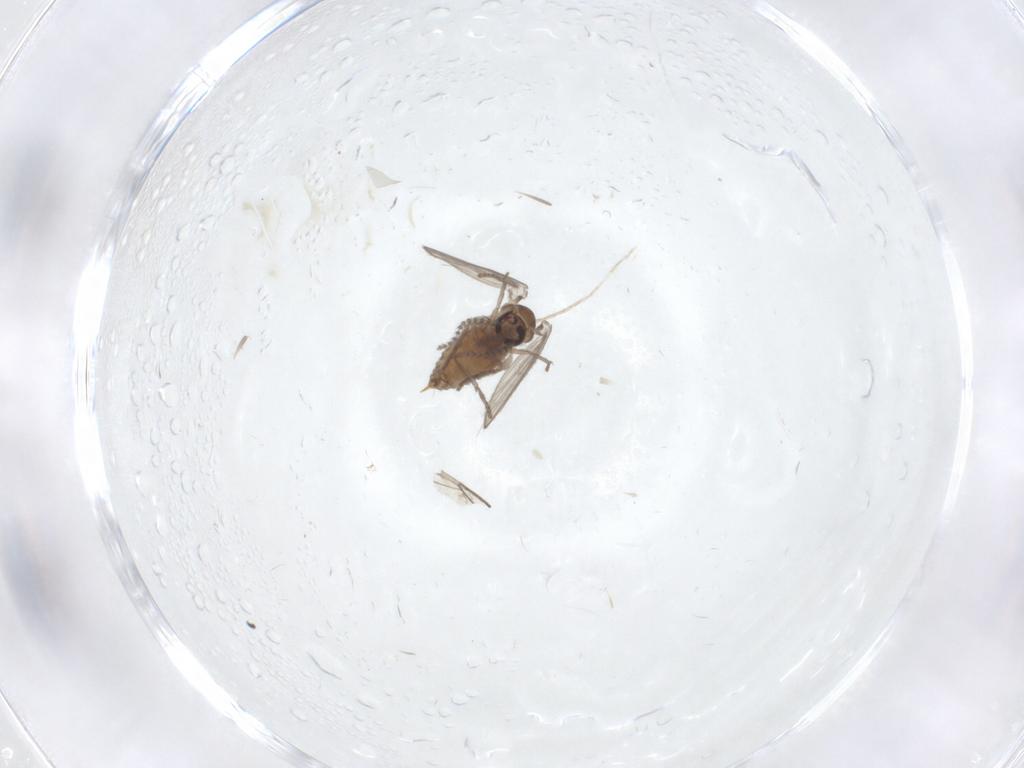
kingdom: Animalia
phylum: Arthropoda
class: Insecta
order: Diptera
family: Psychodidae
